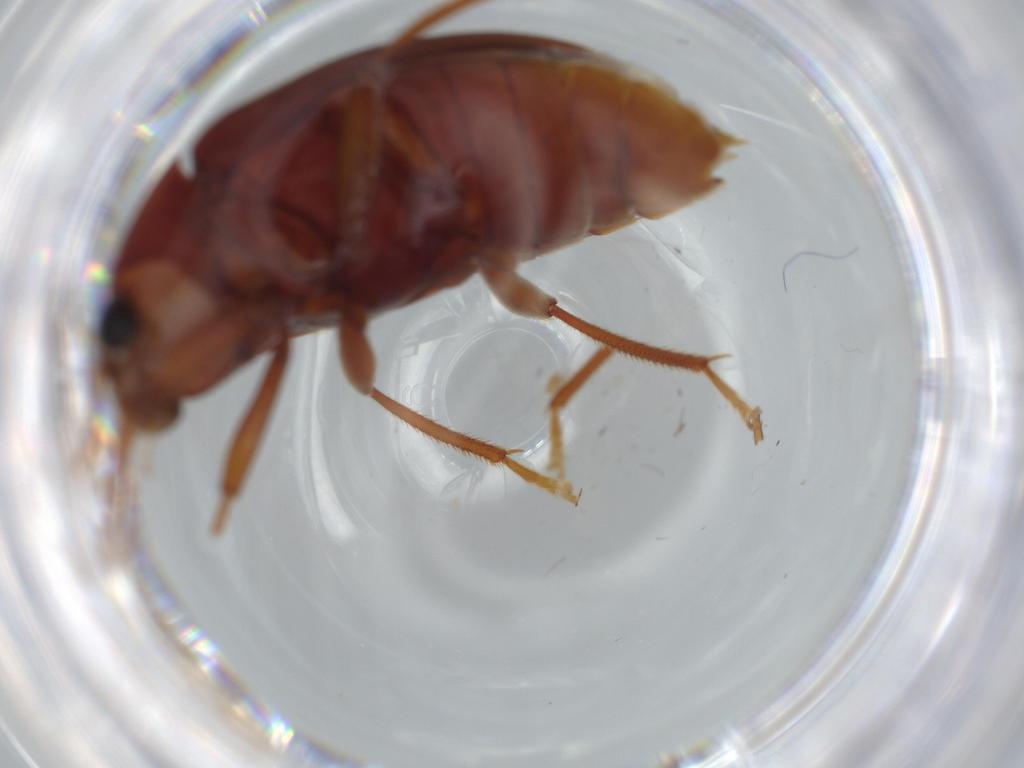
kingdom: Animalia
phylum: Arthropoda
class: Insecta
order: Coleoptera
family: Ptilodactylidae
